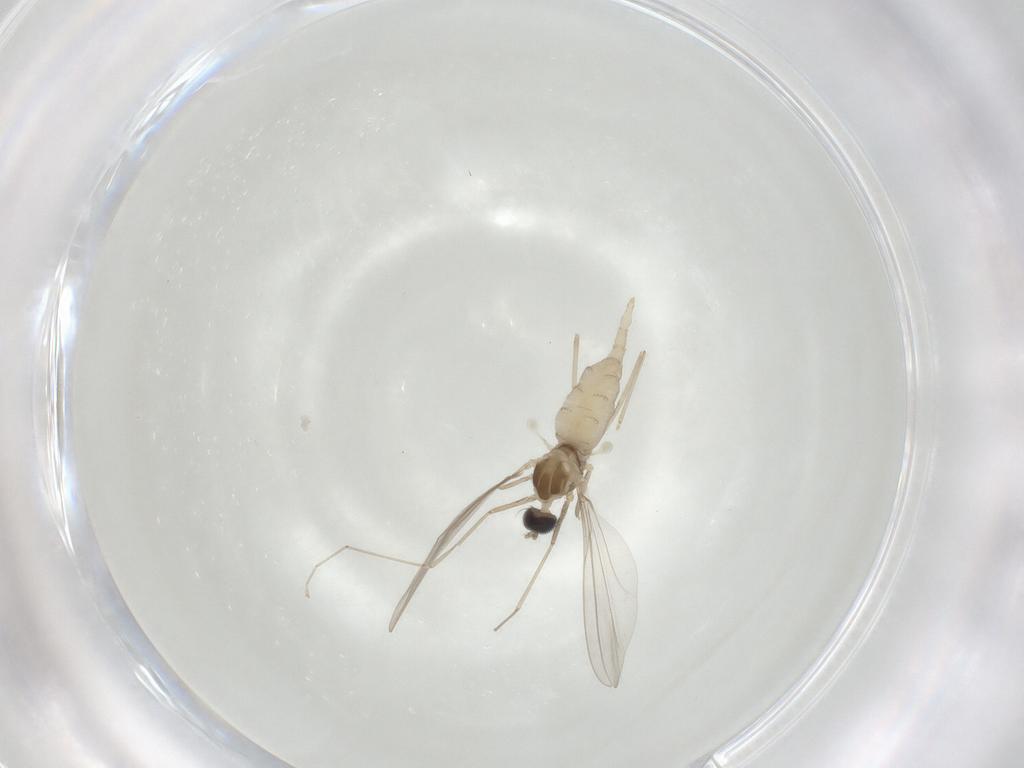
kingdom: Animalia
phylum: Arthropoda
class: Insecta
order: Diptera
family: Cecidomyiidae
